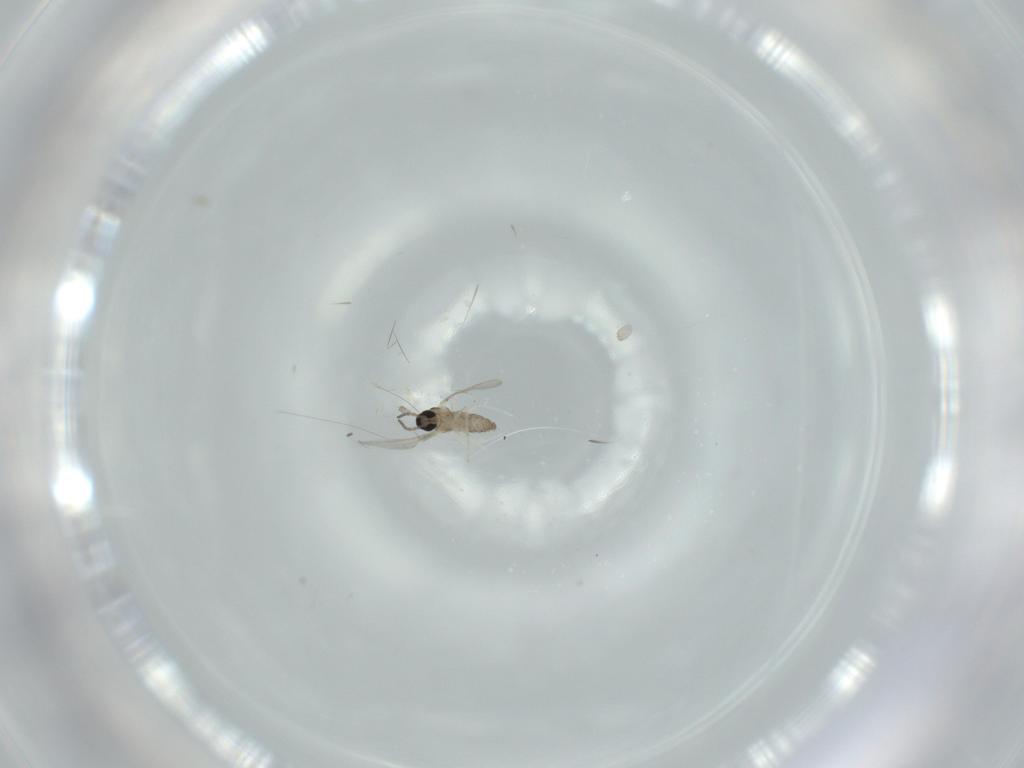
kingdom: Animalia
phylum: Arthropoda
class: Insecta
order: Diptera
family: Cecidomyiidae
